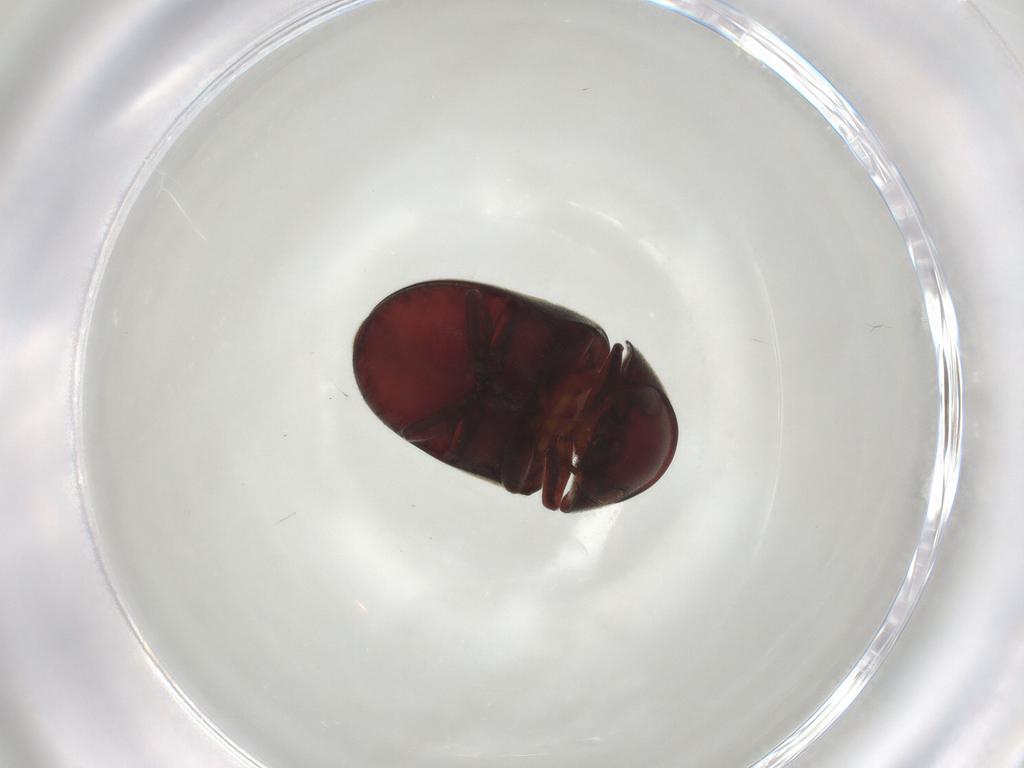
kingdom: Animalia
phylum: Arthropoda
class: Insecta
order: Coleoptera
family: Ptinidae
